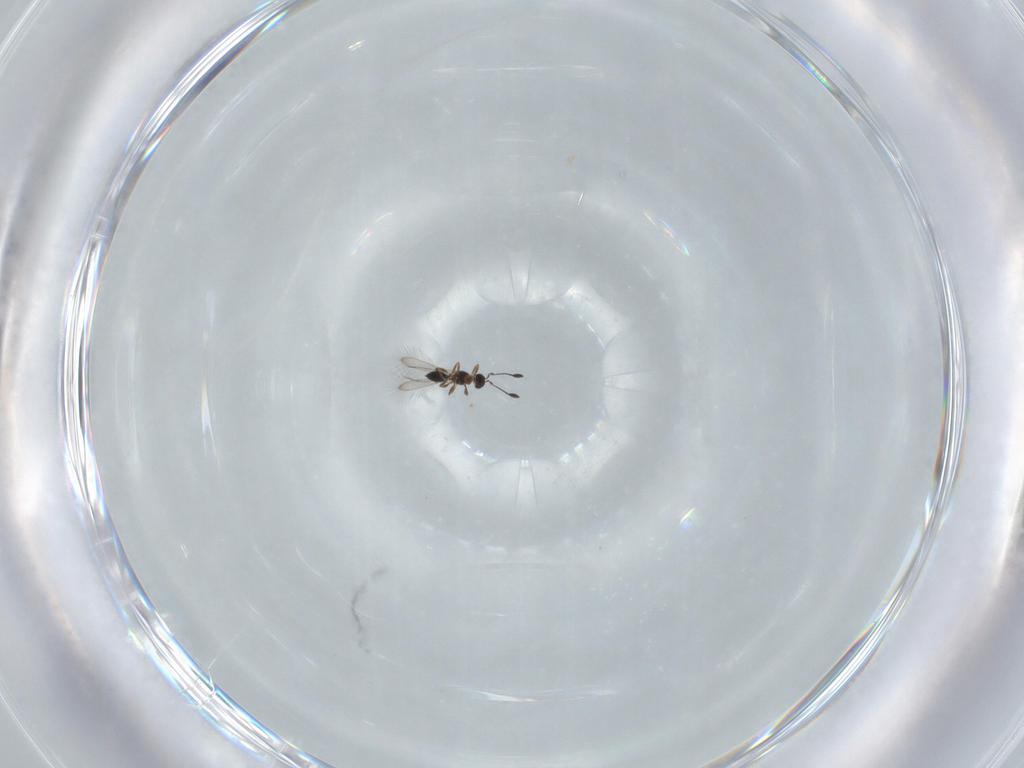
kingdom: Animalia
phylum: Arthropoda
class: Insecta
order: Hymenoptera
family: Mymaridae
